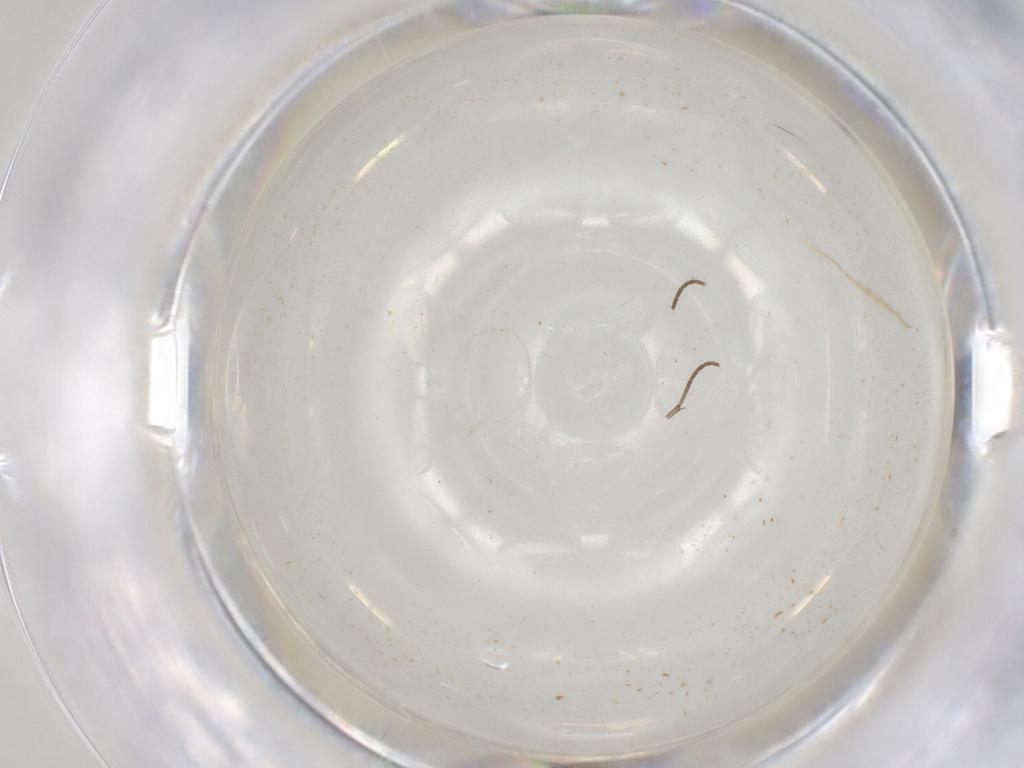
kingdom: Animalia
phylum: Arthropoda
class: Insecta
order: Diptera
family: Sciaridae
